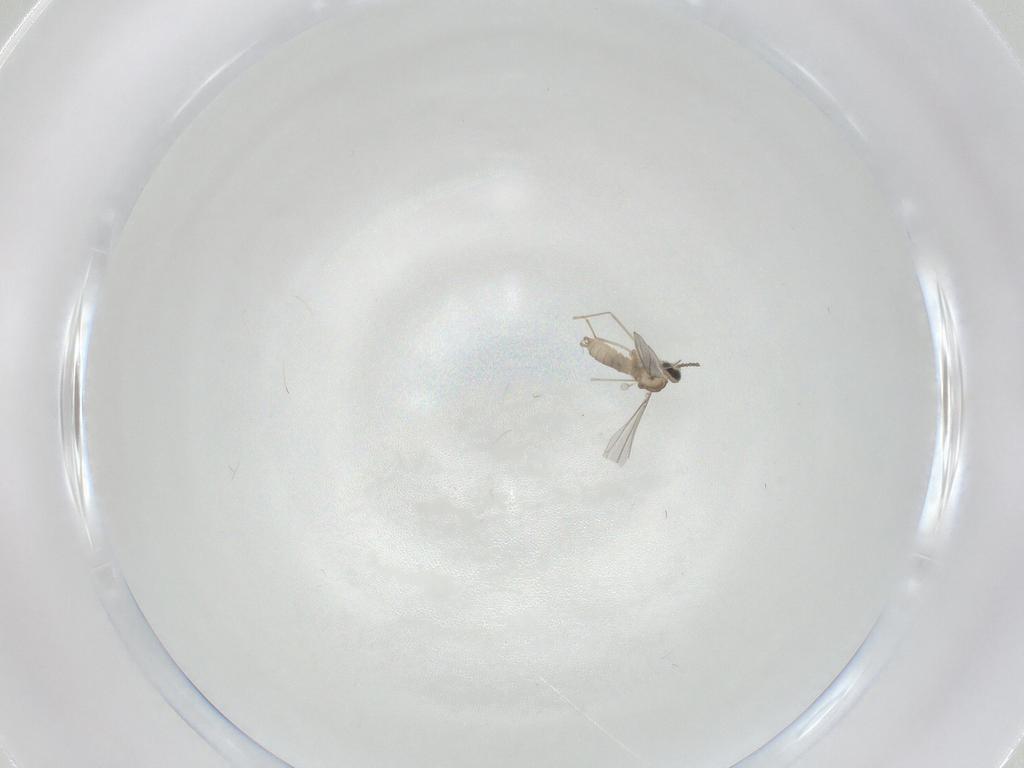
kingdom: Animalia
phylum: Arthropoda
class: Insecta
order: Diptera
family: Cecidomyiidae
